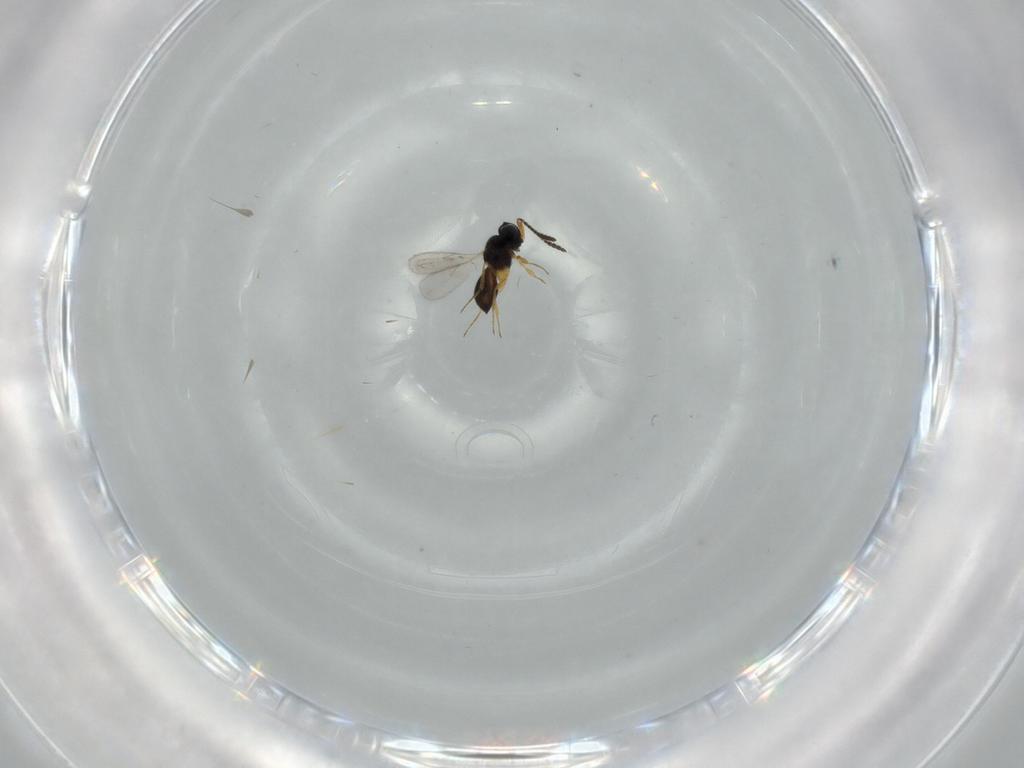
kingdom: Animalia
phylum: Arthropoda
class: Insecta
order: Hymenoptera
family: Scelionidae
